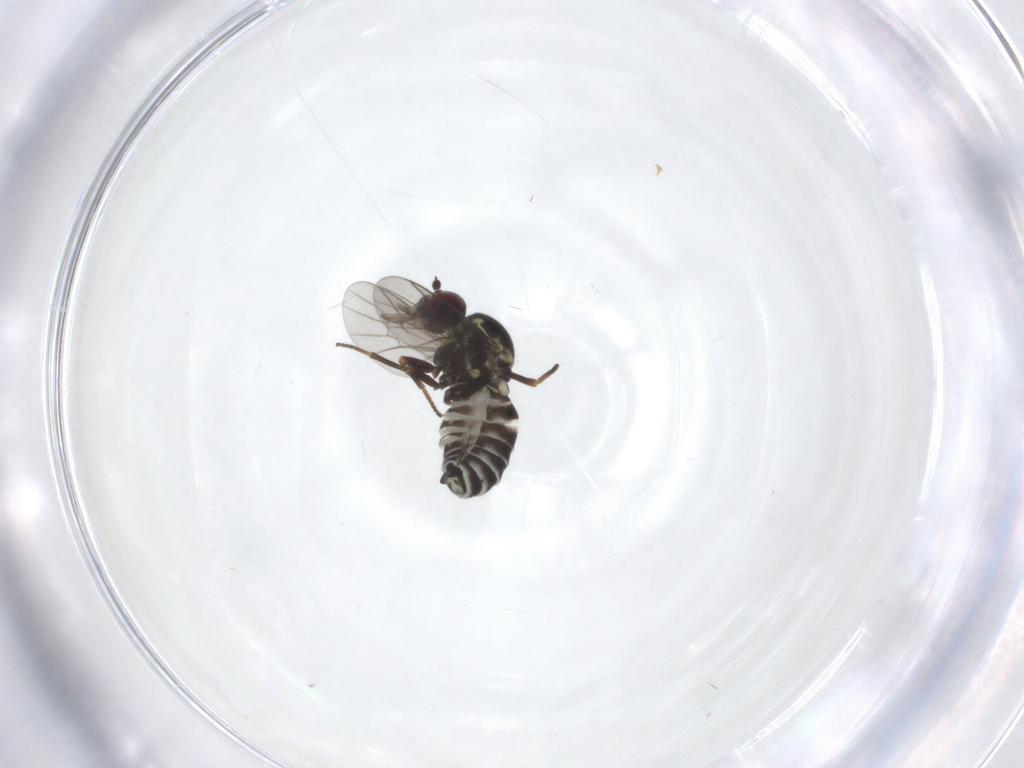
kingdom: Animalia
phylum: Arthropoda
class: Insecta
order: Diptera
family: Bombyliidae
